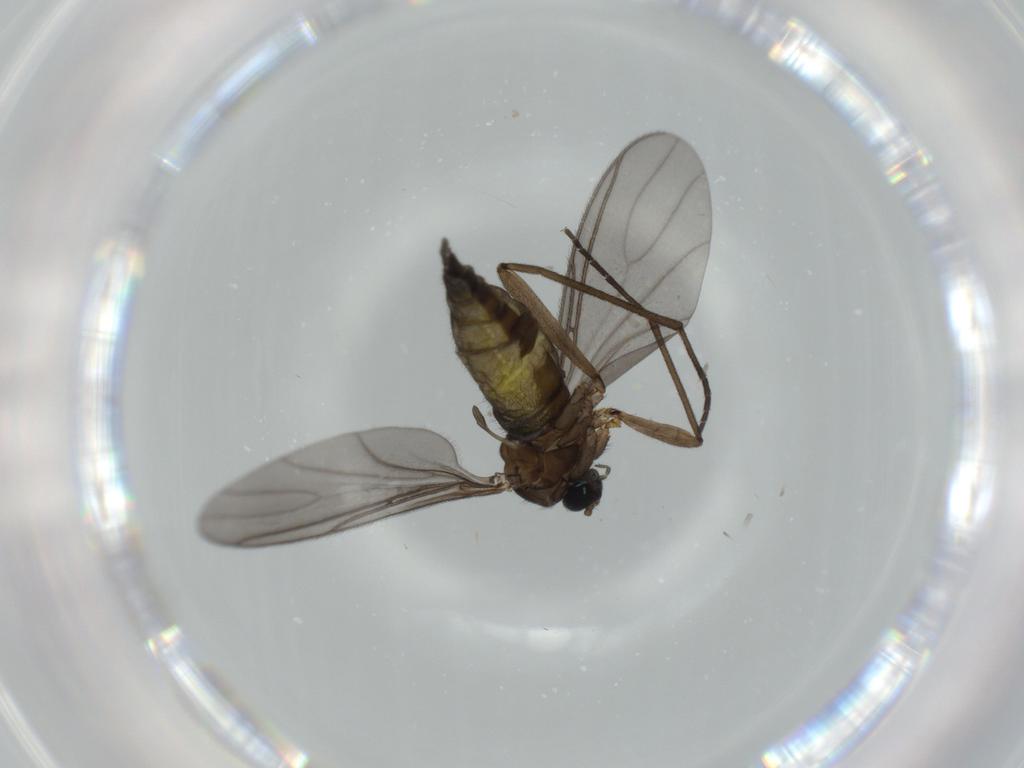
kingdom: Animalia
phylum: Arthropoda
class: Insecta
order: Diptera
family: Sciaridae
